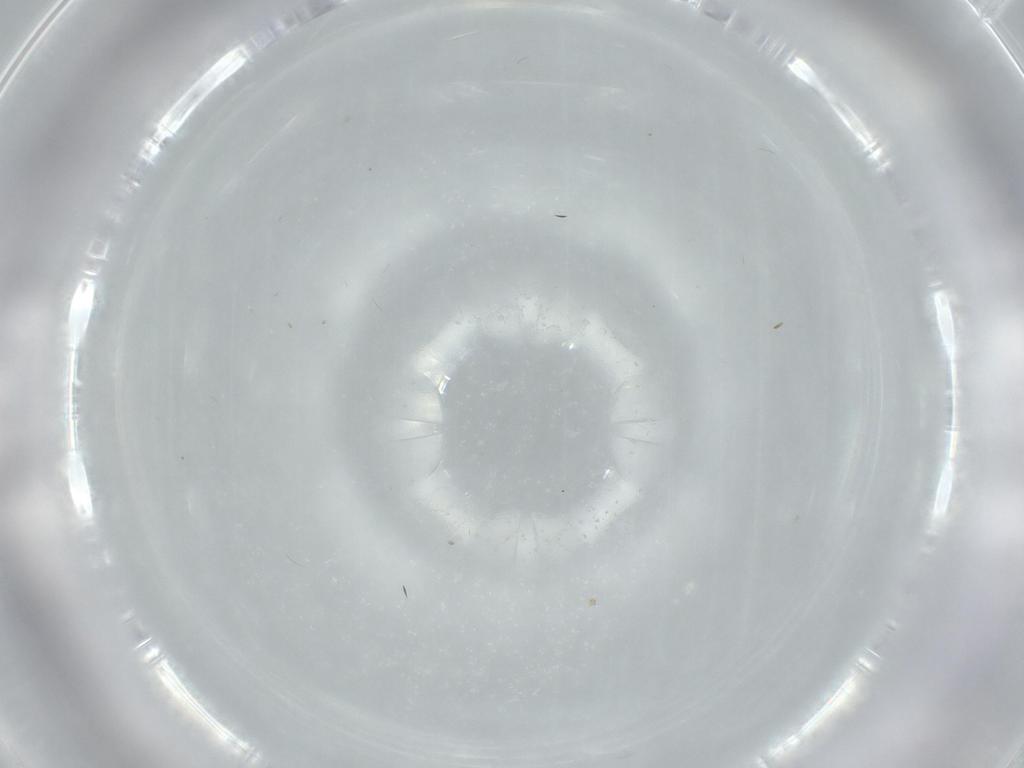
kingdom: Animalia
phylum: Arthropoda
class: Insecta
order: Diptera
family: Cecidomyiidae
